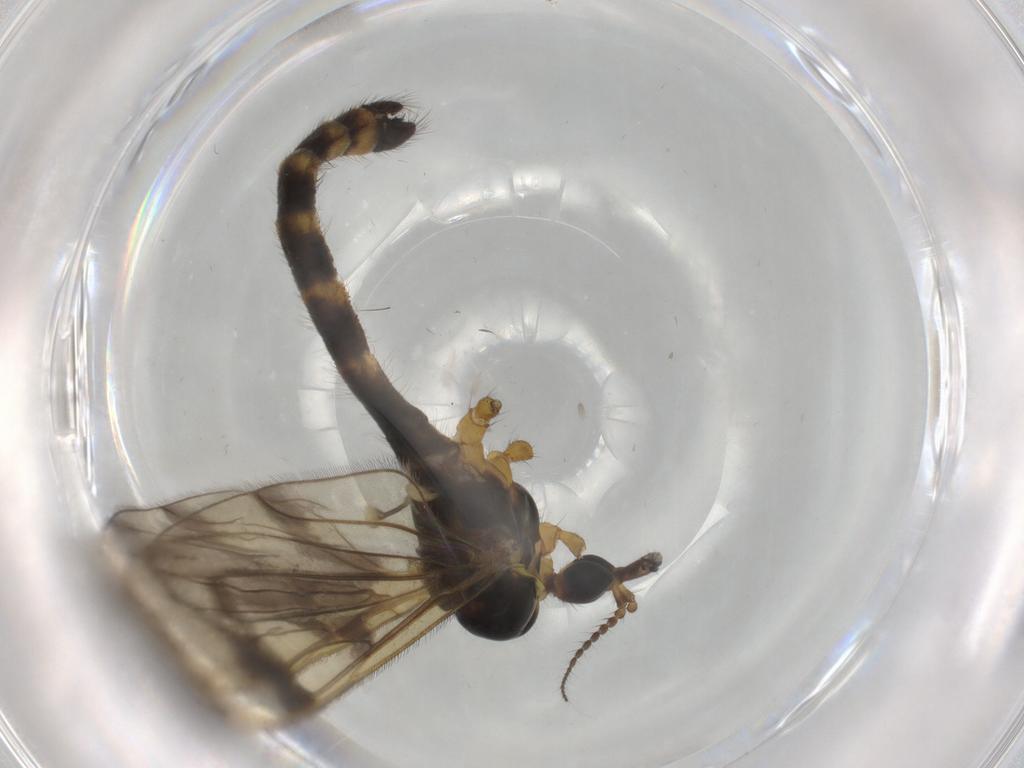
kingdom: Animalia
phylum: Arthropoda
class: Insecta
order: Diptera
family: Limoniidae
